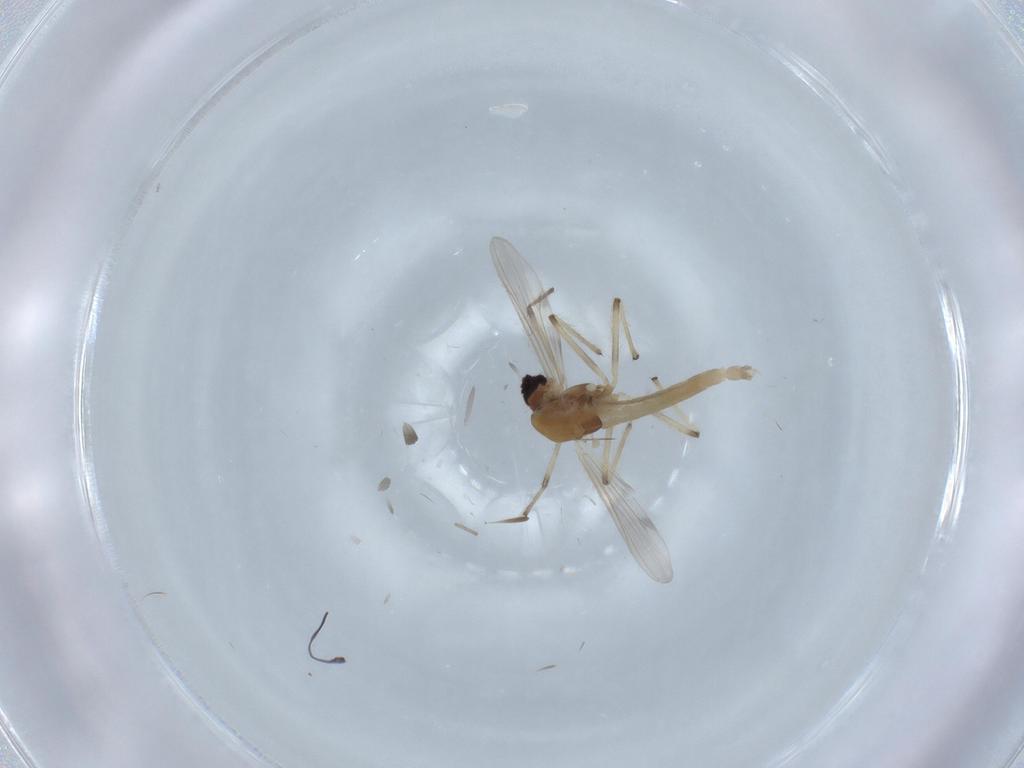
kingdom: Animalia
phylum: Arthropoda
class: Insecta
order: Diptera
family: Chironomidae
